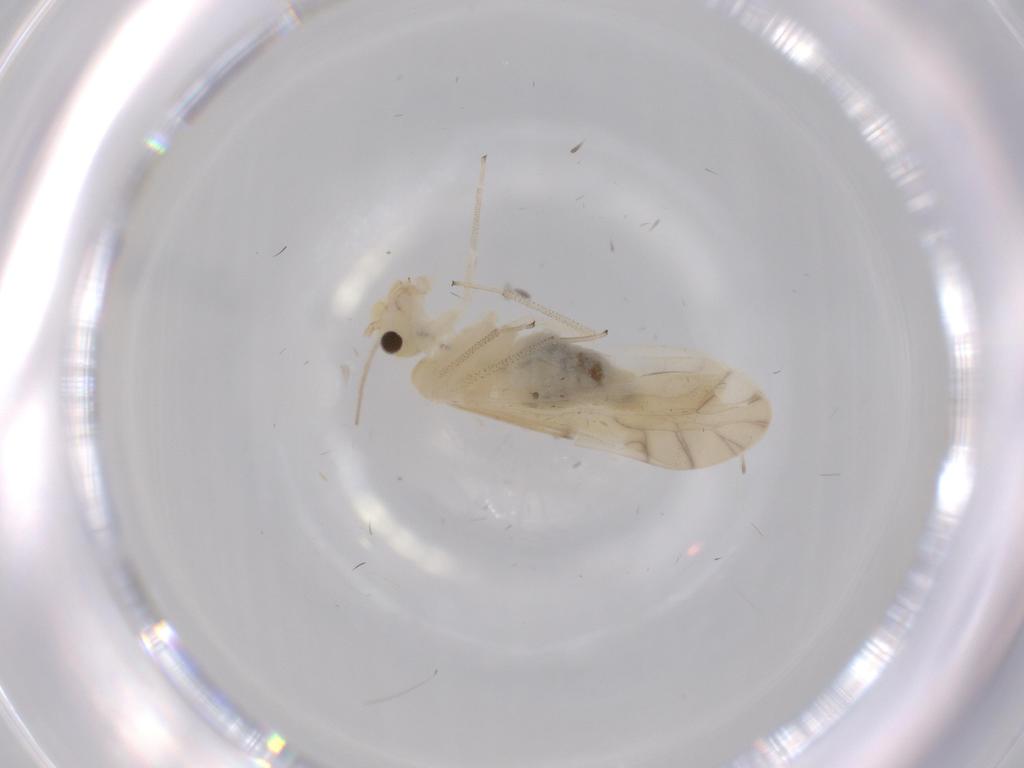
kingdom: Animalia
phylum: Arthropoda
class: Insecta
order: Psocodea
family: Caeciliusidae
